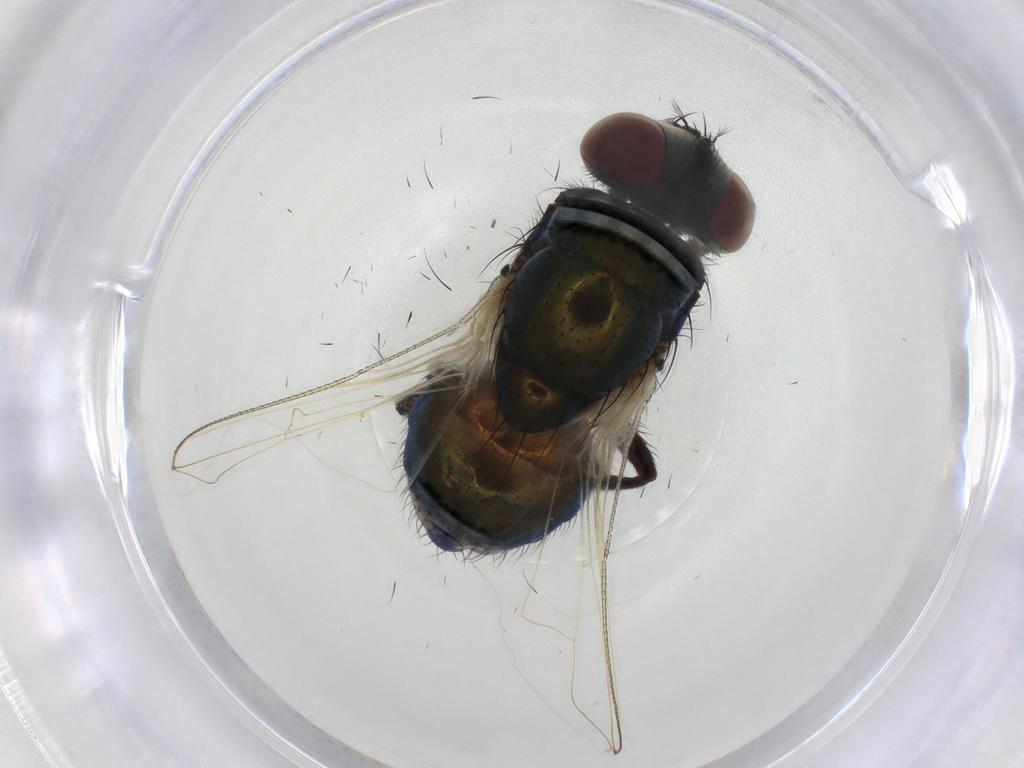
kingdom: Animalia
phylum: Arthropoda
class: Insecta
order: Diptera
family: Muscidae
